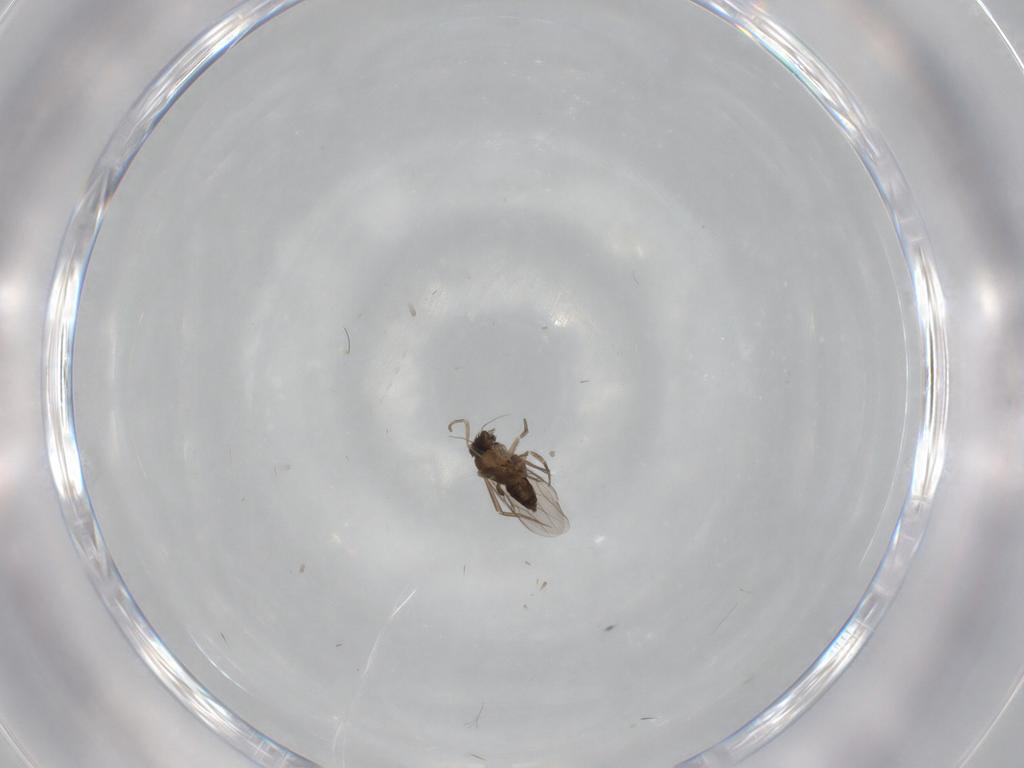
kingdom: Animalia
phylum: Arthropoda
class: Insecta
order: Diptera
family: Phoridae
